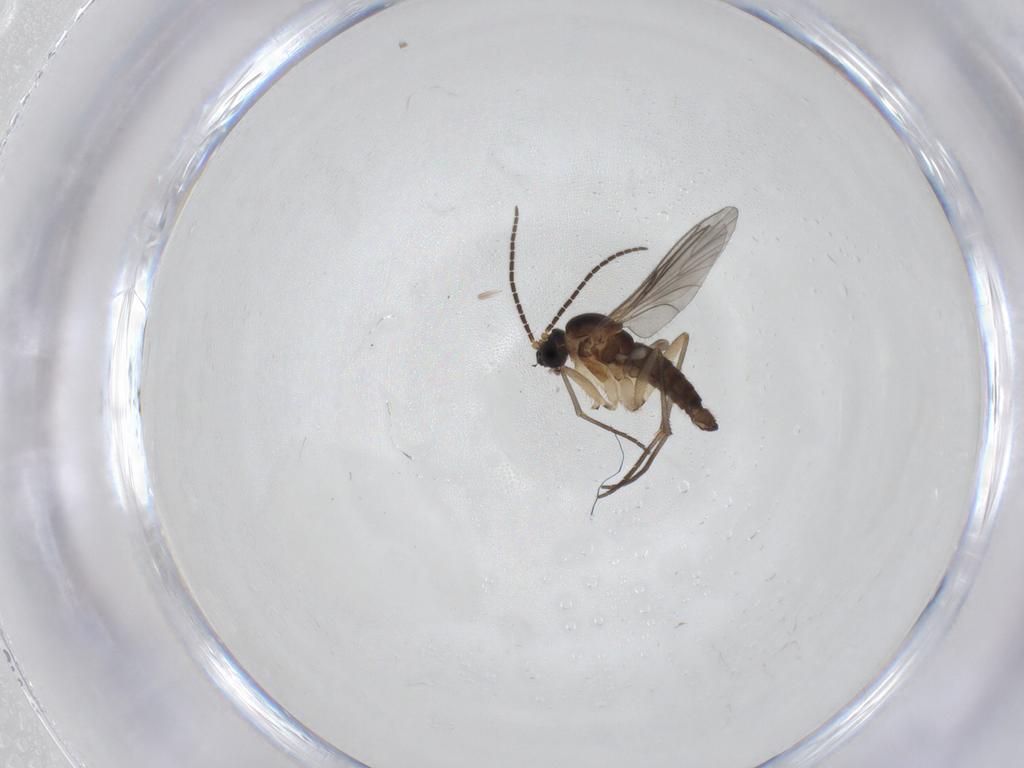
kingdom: Animalia
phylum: Arthropoda
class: Insecta
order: Diptera
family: Sciaridae
